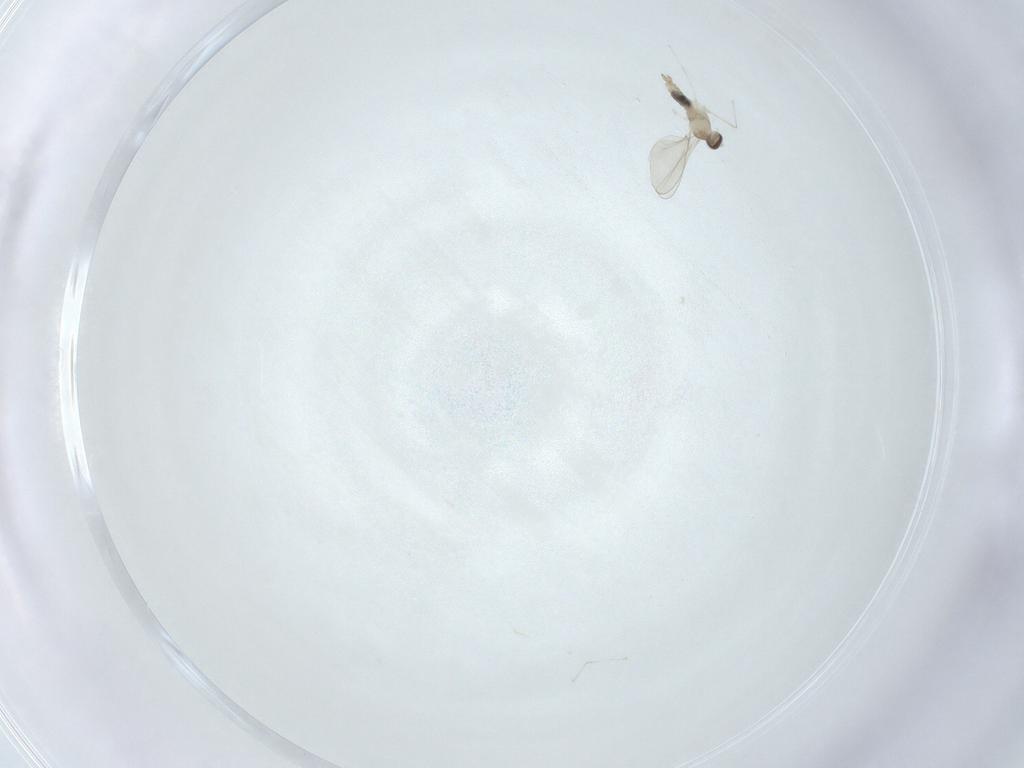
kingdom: Animalia
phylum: Arthropoda
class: Insecta
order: Diptera
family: Cecidomyiidae
